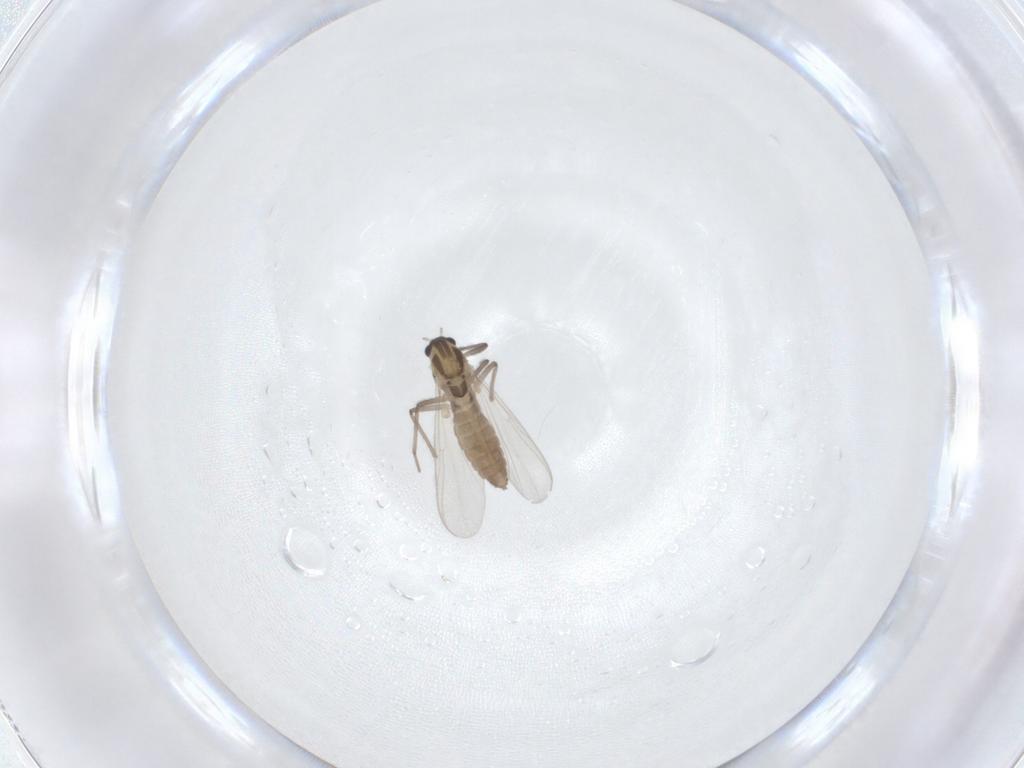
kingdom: Animalia
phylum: Arthropoda
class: Insecta
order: Diptera
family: Chironomidae
